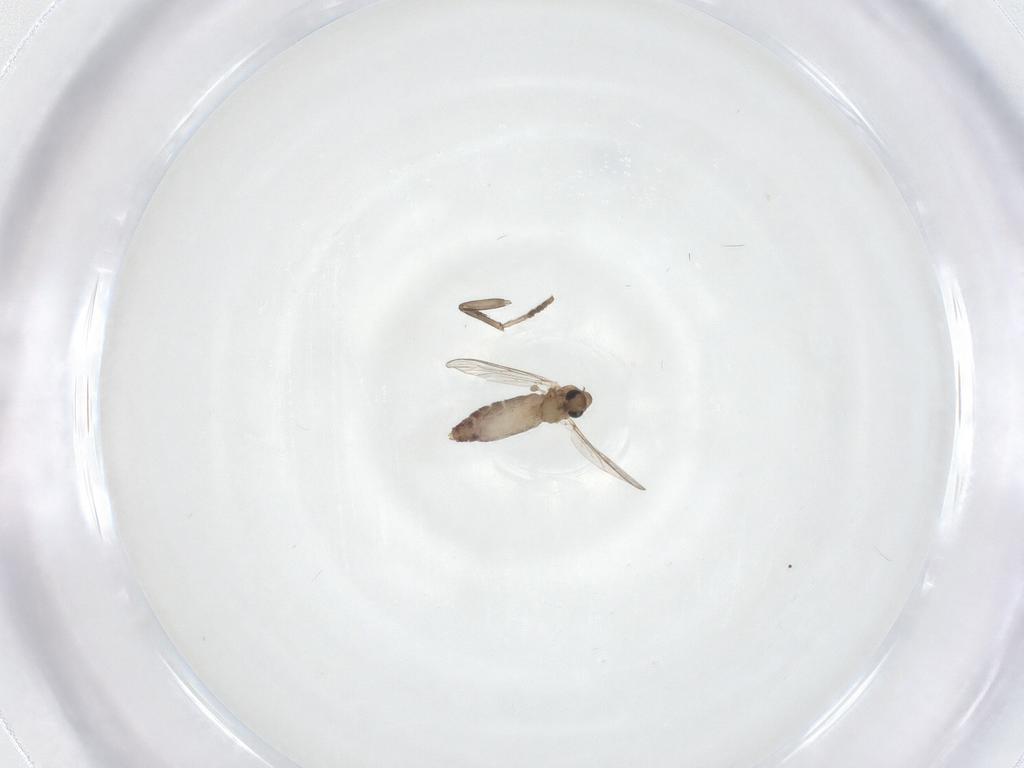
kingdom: Animalia
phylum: Arthropoda
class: Insecta
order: Diptera
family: Chironomidae
